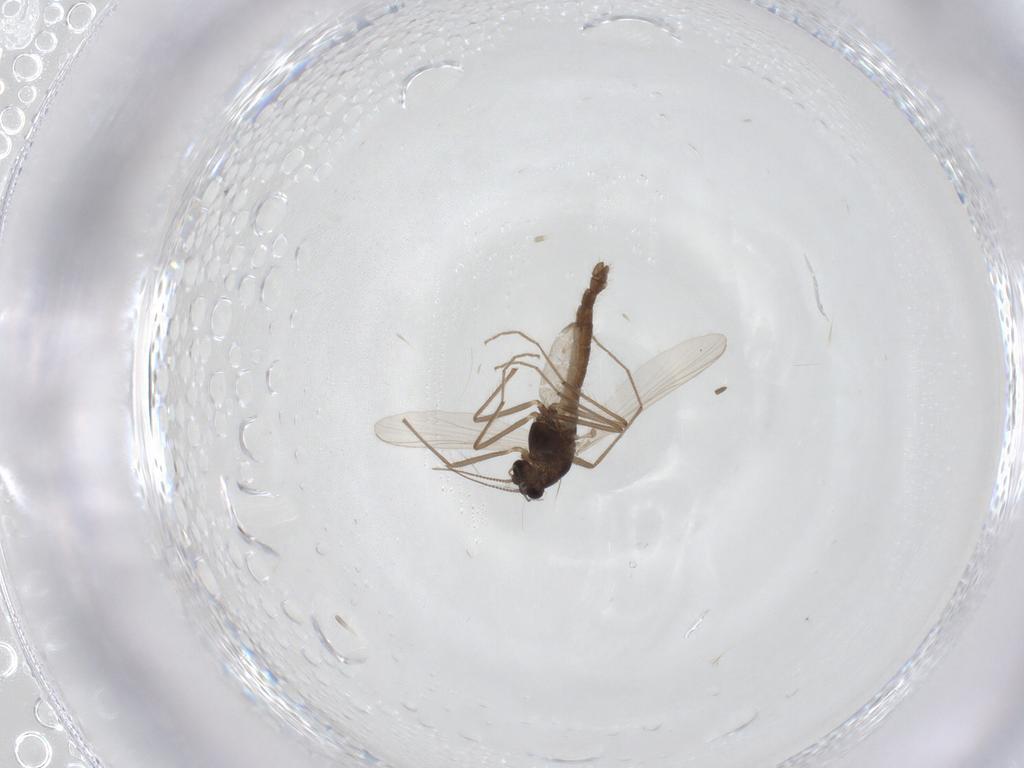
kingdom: Animalia
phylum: Arthropoda
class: Insecta
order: Diptera
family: Chironomidae
